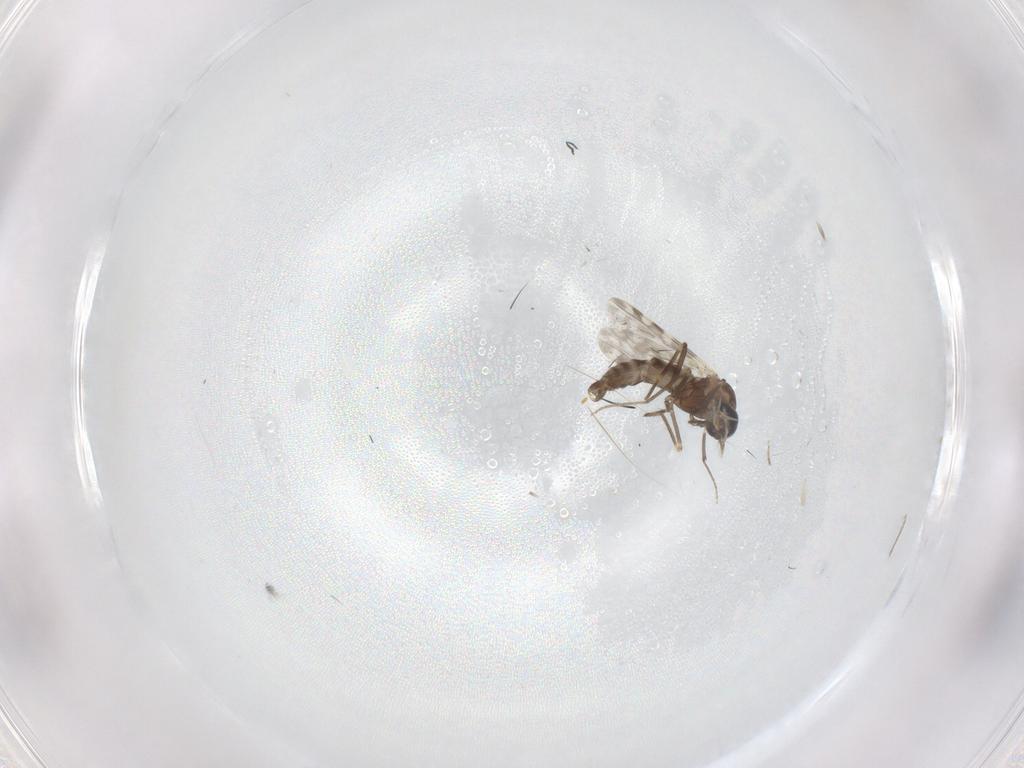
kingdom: Animalia
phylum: Arthropoda
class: Insecta
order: Diptera
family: Ceratopogonidae
